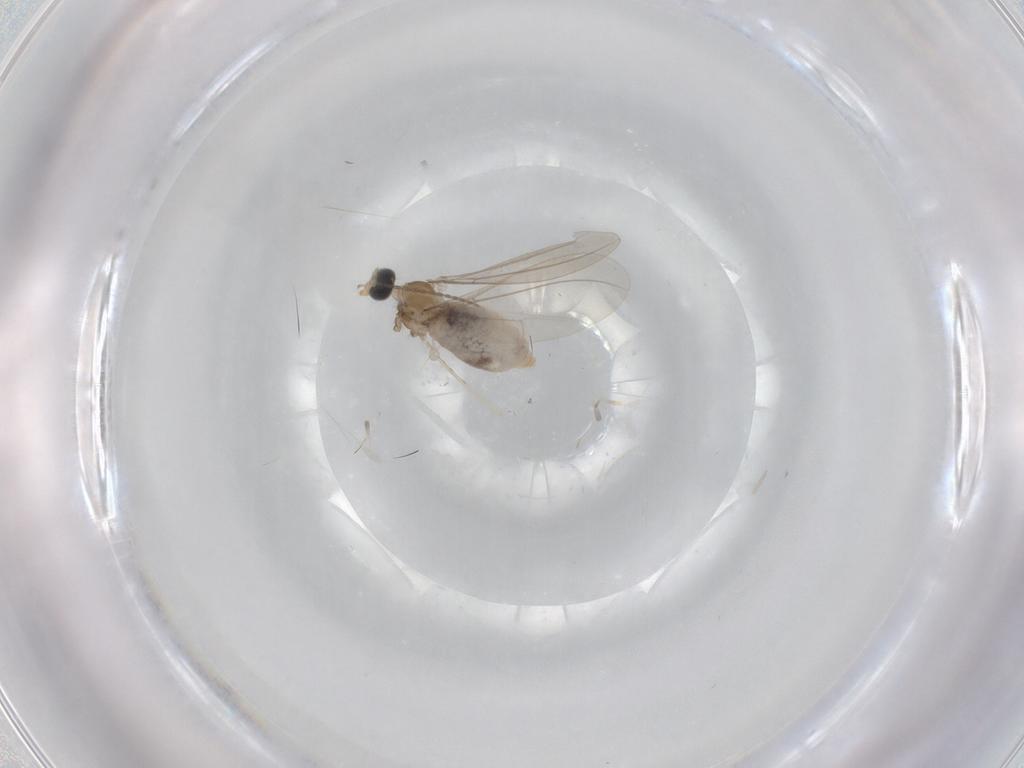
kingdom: Animalia
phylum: Arthropoda
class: Insecta
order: Diptera
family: Cecidomyiidae
